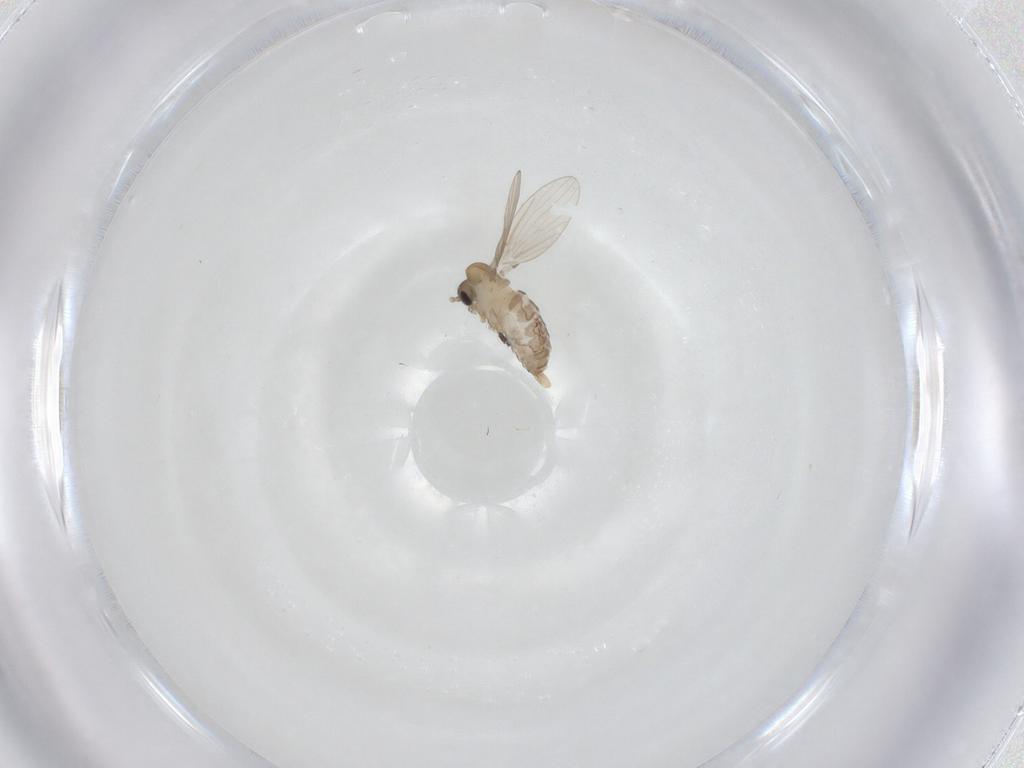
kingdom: Animalia
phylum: Arthropoda
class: Insecta
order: Diptera
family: Sciaridae
